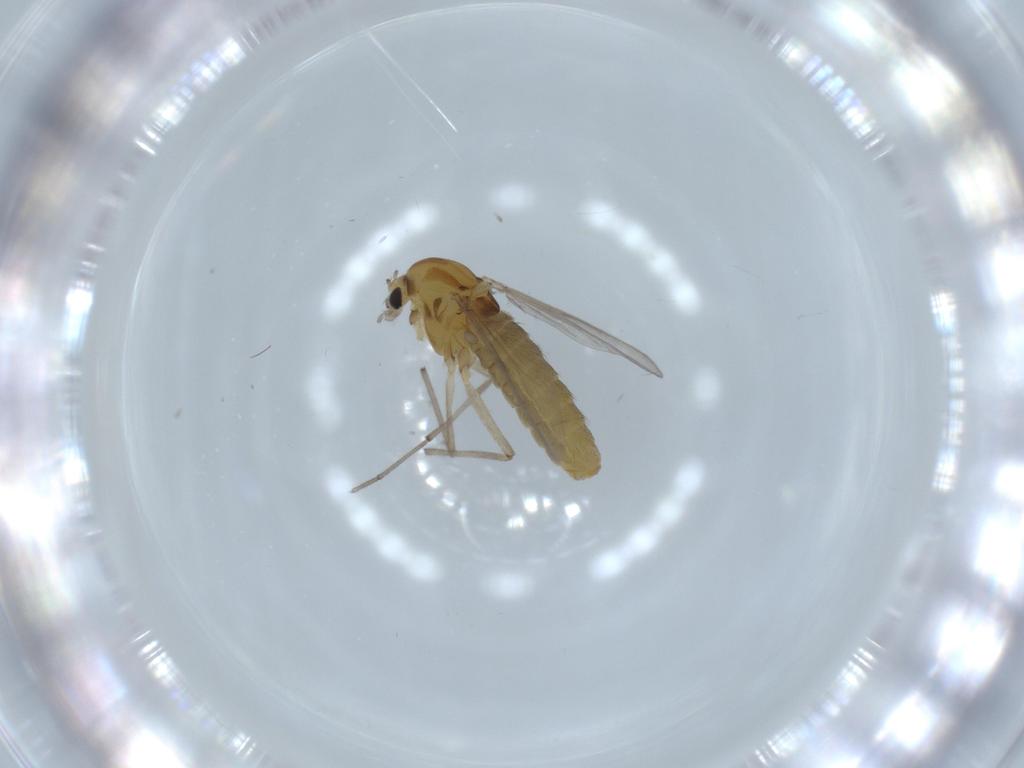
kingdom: Animalia
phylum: Arthropoda
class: Insecta
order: Diptera
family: Chironomidae
